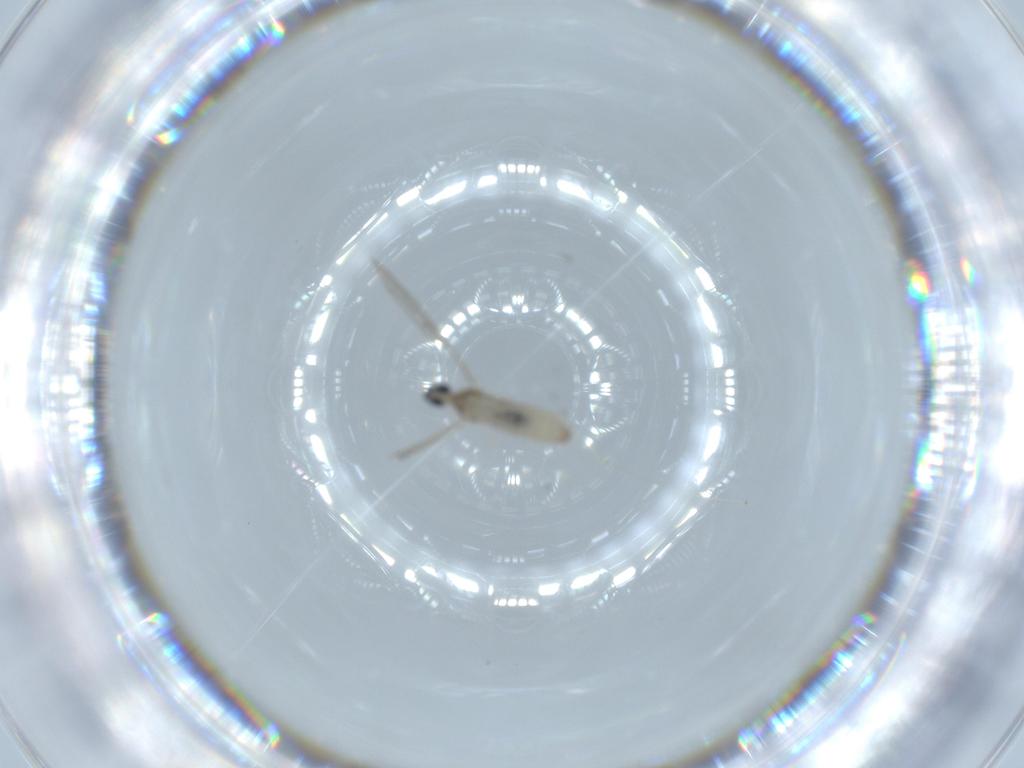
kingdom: Animalia
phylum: Arthropoda
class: Insecta
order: Diptera
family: Cecidomyiidae
